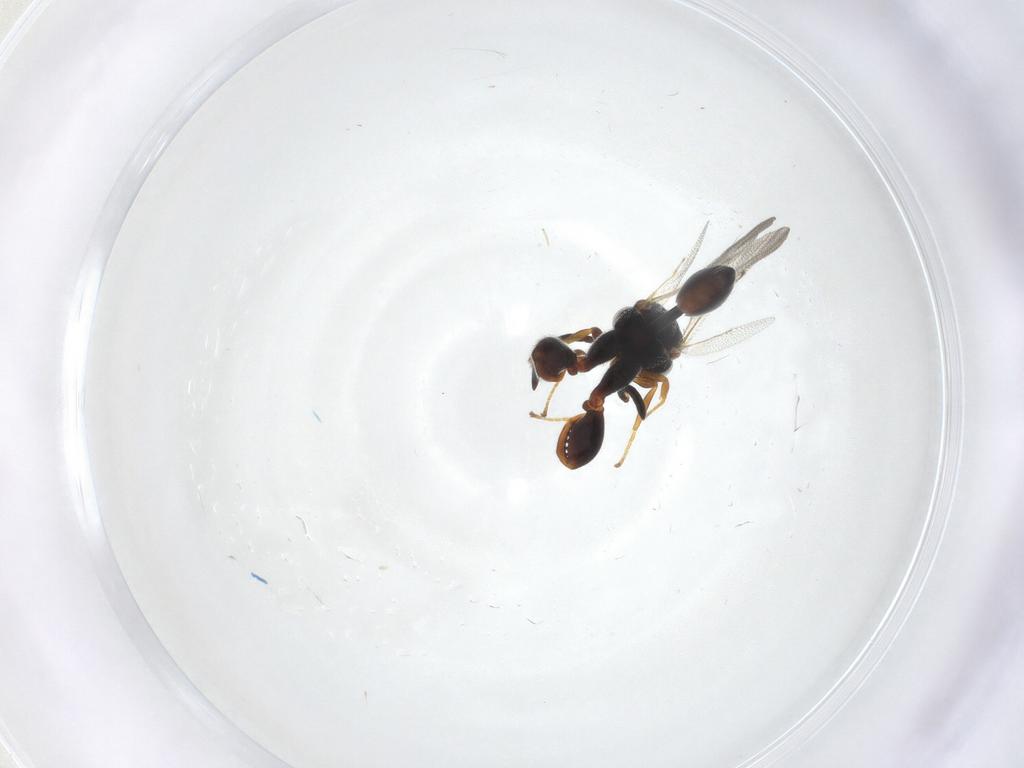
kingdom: Animalia
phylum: Arthropoda
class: Insecta
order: Hymenoptera
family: Chalcididae
